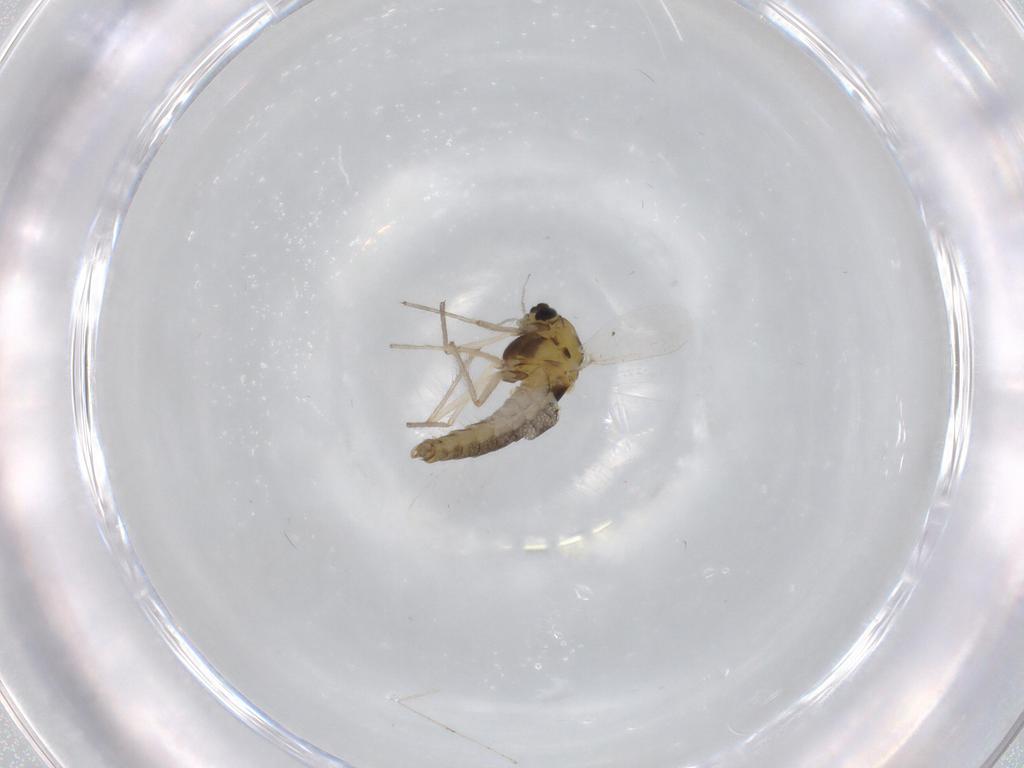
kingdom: Animalia
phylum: Arthropoda
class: Insecta
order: Diptera
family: Chironomidae
